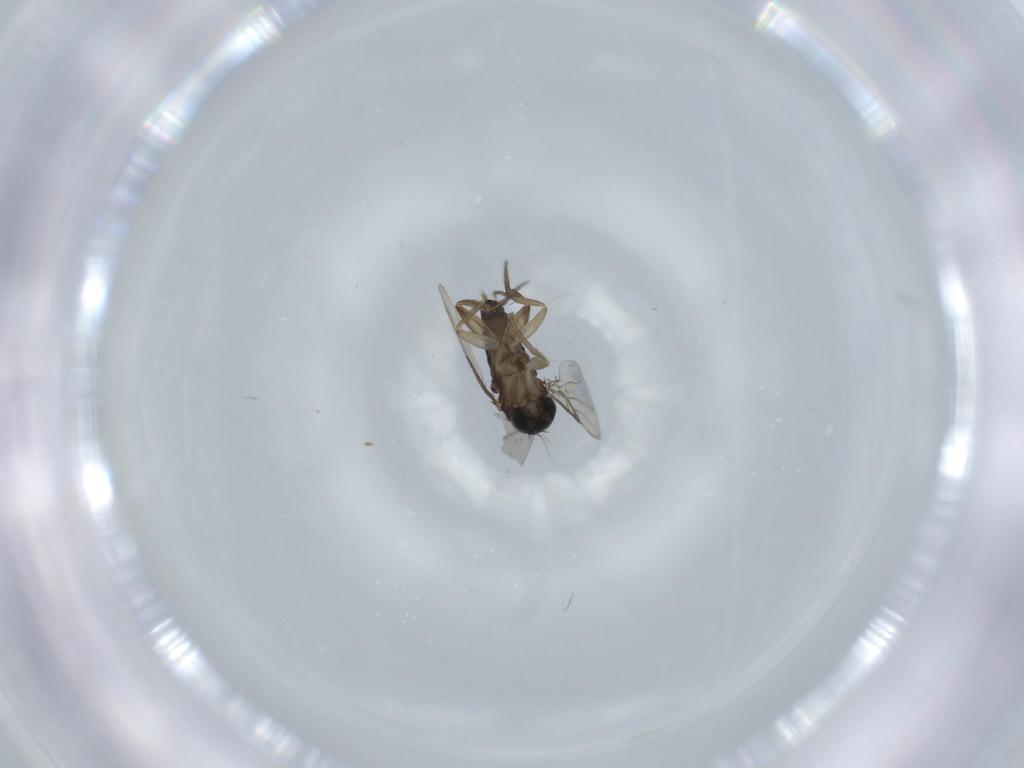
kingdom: Animalia
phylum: Arthropoda
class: Insecta
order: Diptera
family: Phoridae
